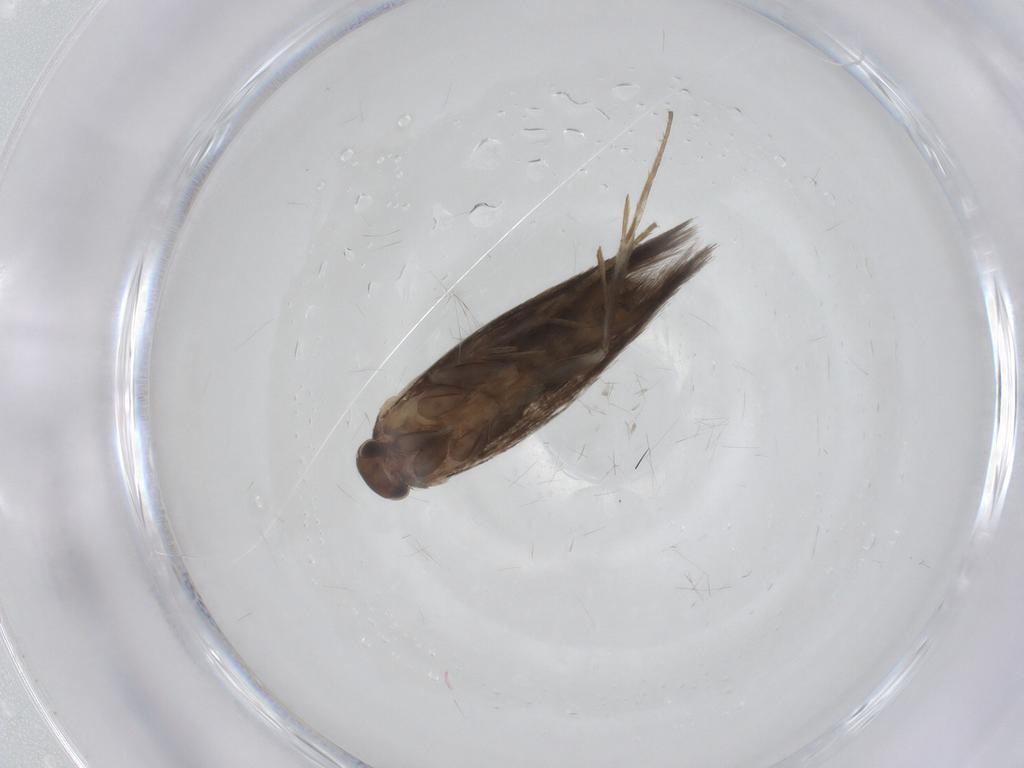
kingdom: Animalia
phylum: Arthropoda
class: Insecta
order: Lepidoptera
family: Elachistidae
